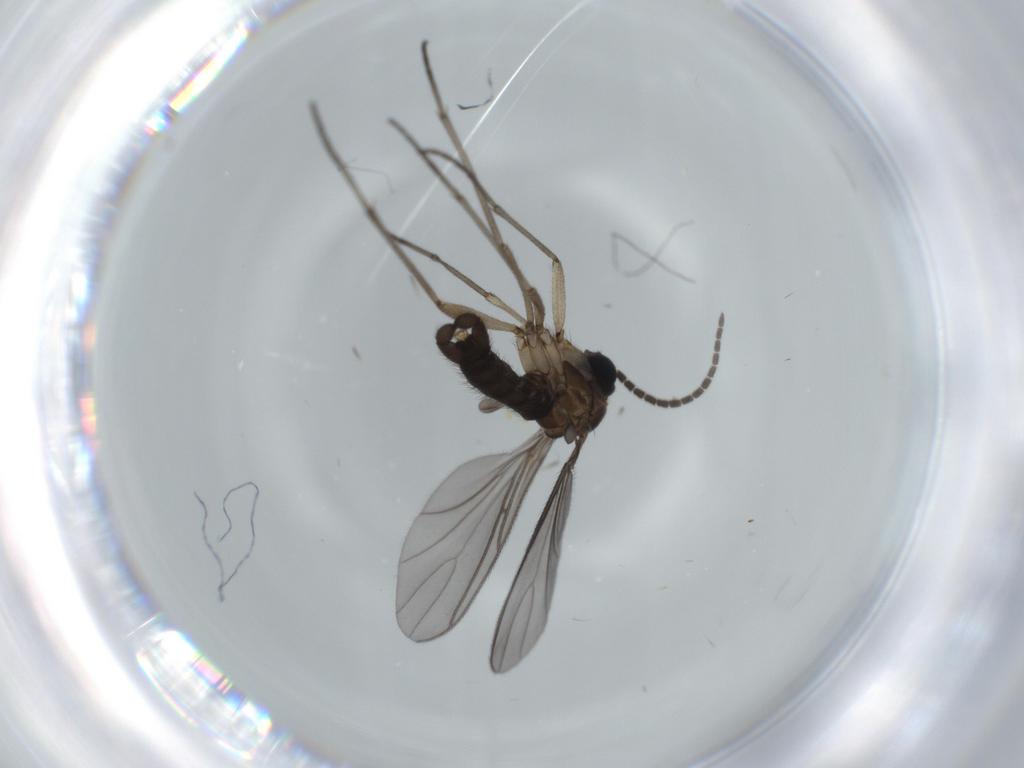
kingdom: Animalia
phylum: Arthropoda
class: Insecta
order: Diptera
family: Sciaridae
